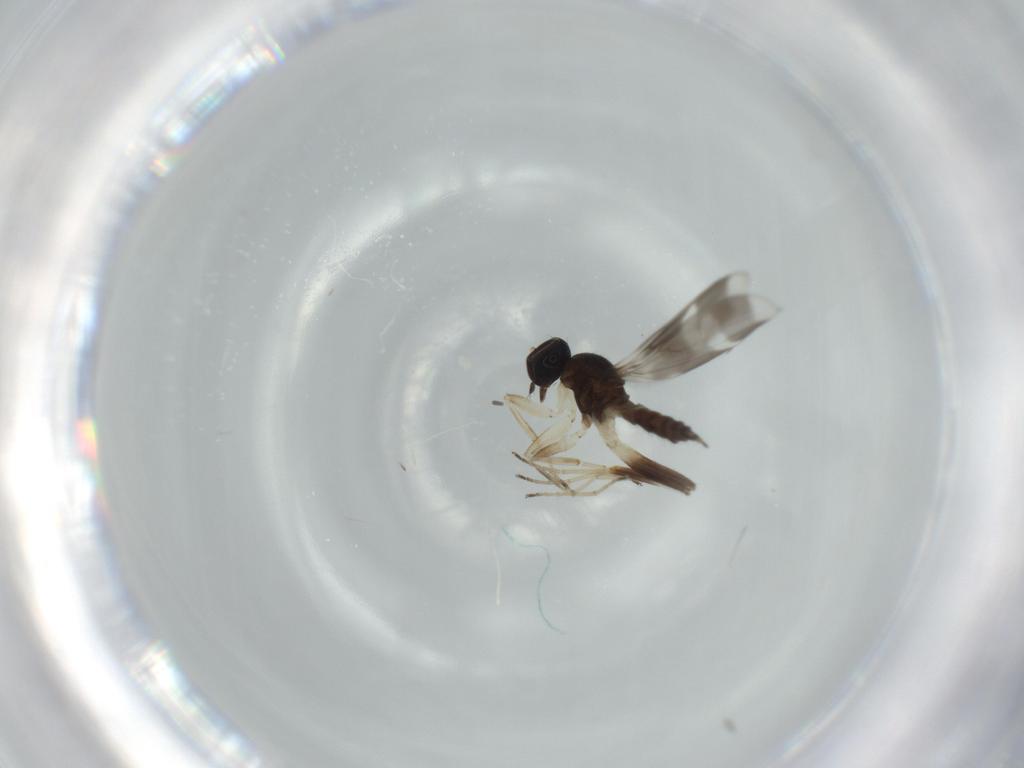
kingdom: Animalia
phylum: Arthropoda
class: Insecta
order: Diptera
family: Hybotidae
